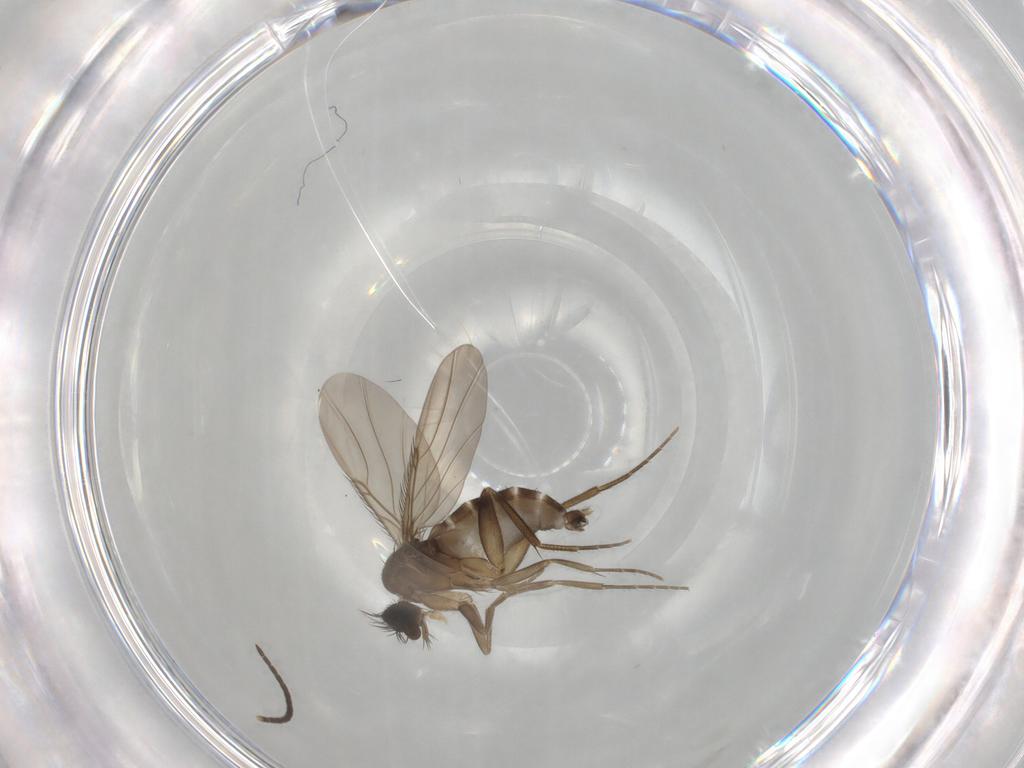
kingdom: Animalia
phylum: Arthropoda
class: Insecta
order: Diptera
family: Phoridae
